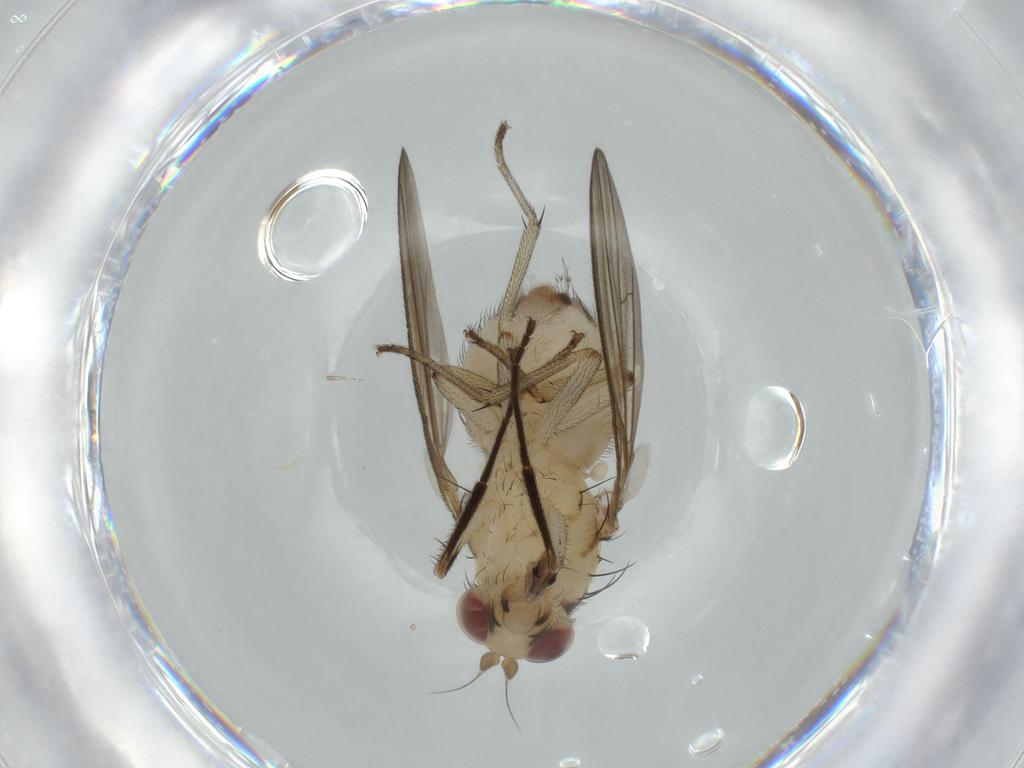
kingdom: Animalia
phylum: Arthropoda
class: Insecta
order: Diptera
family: Lauxaniidae
